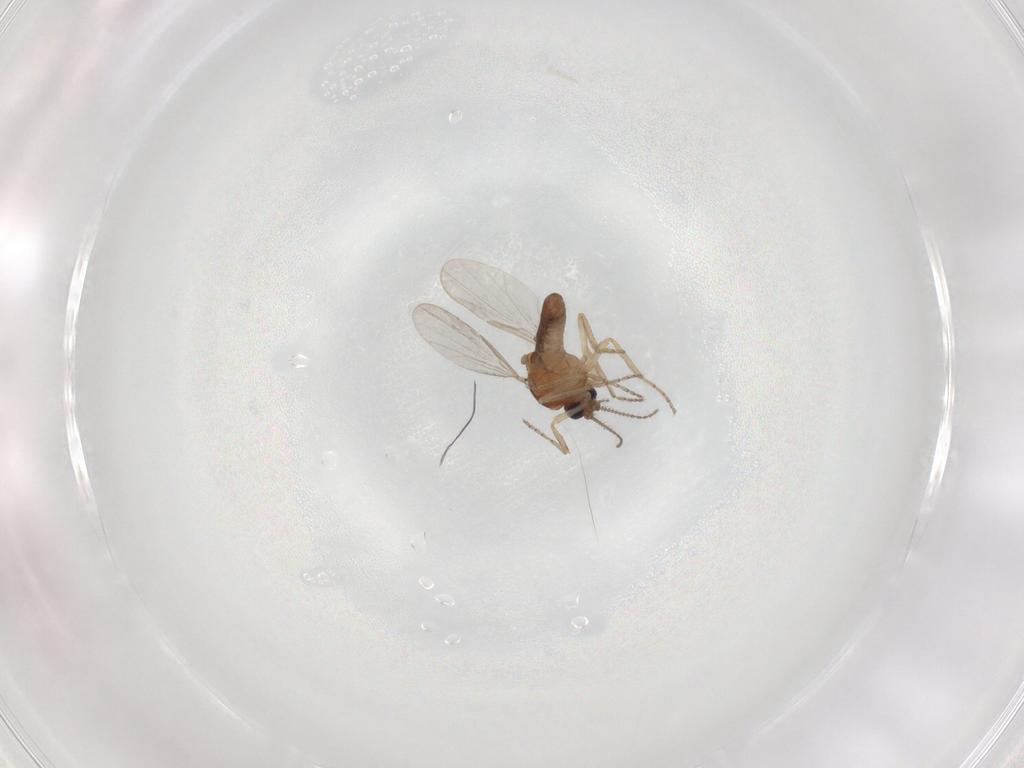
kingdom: Animalia
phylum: Arthropoda
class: Insecta
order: Diptera
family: Ceratopogonidae
